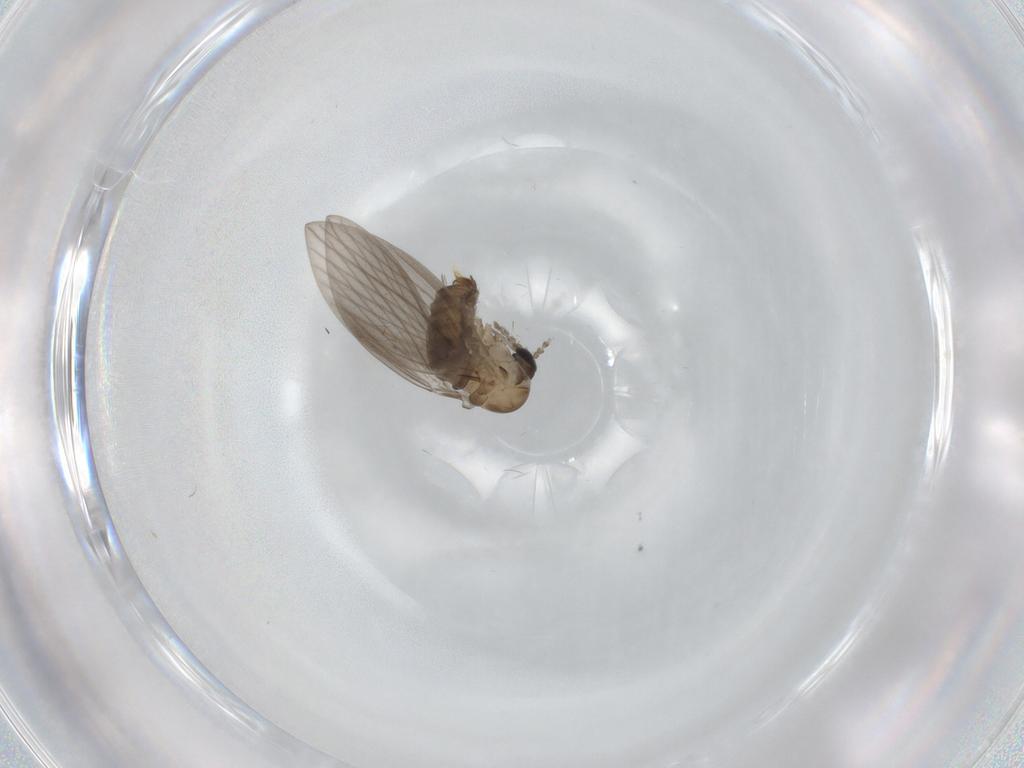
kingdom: Animalia
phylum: Arthropoda
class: Insecta
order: Diptera
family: Psychodidae
